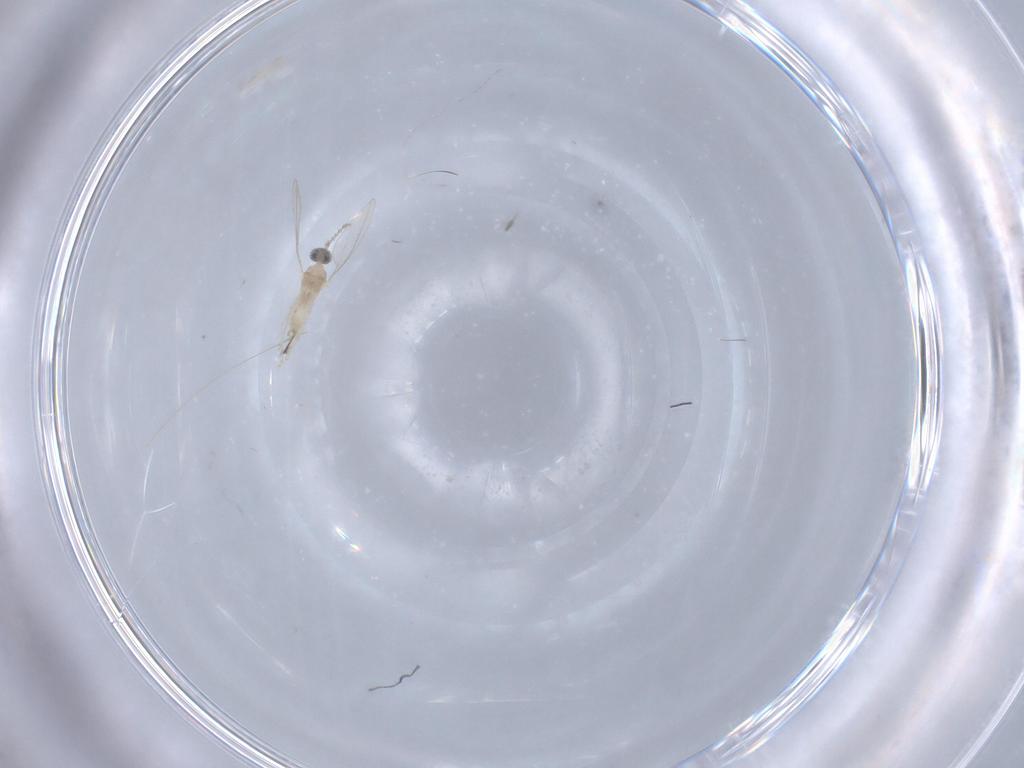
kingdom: Animalia
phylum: Arthropoda
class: Insecta
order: Diptera
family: Cecidomyiidae
